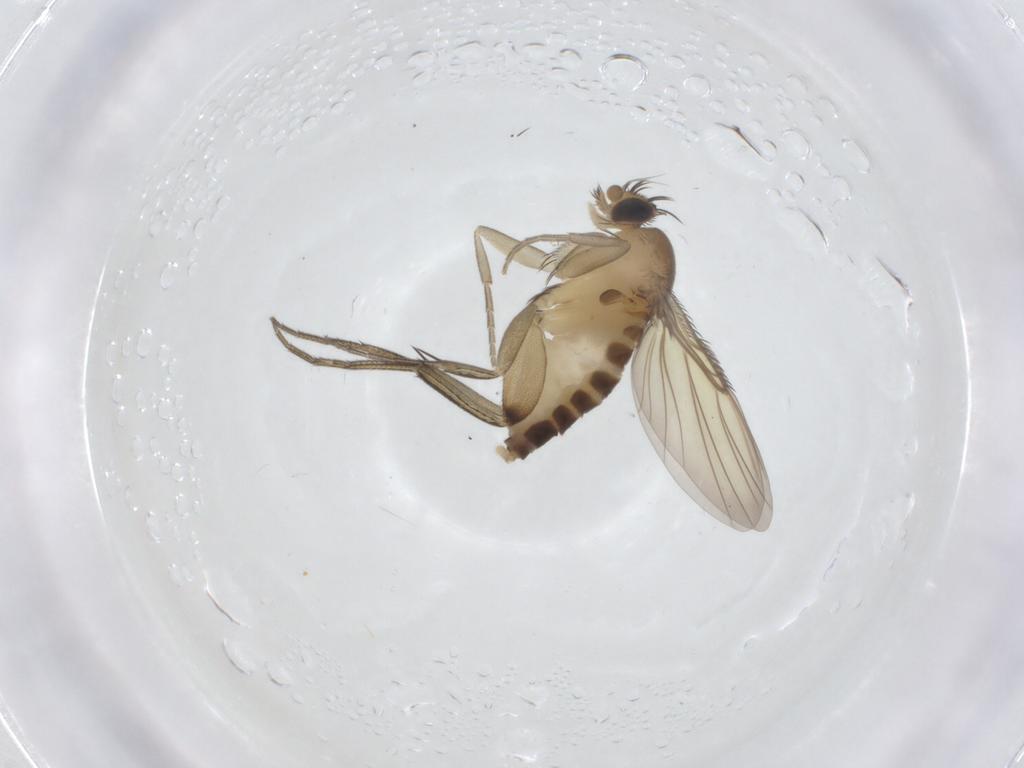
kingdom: Animalia
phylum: Arthropoda
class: Insecta
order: Diptera
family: Phoridae
